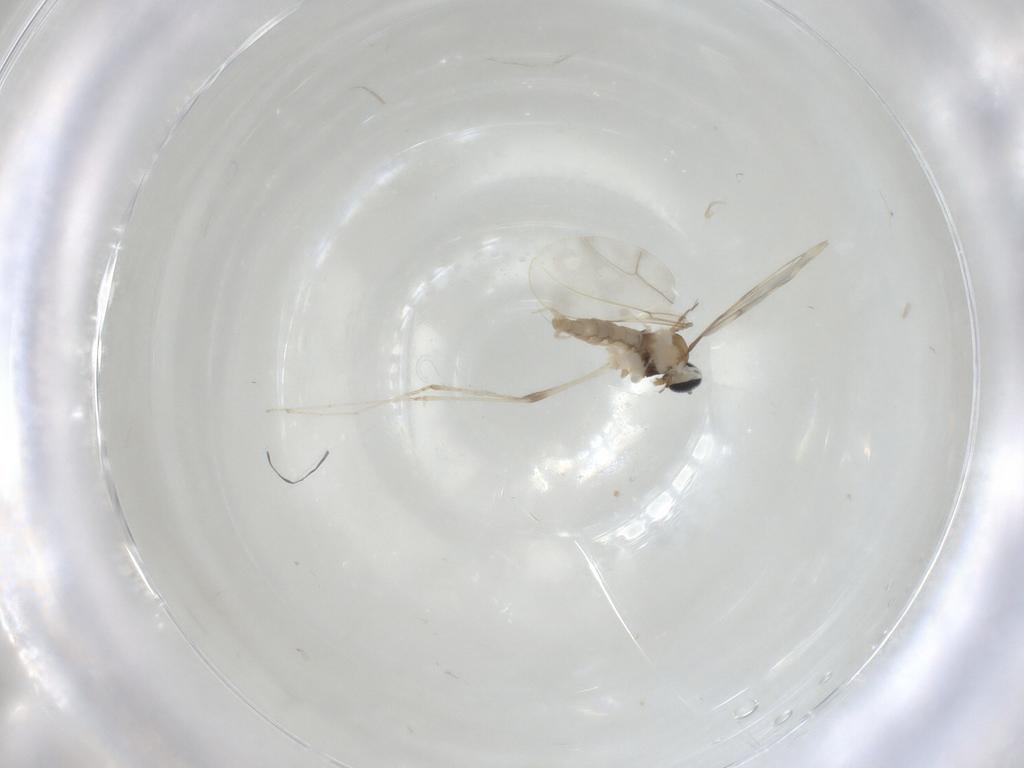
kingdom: Animalia
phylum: Arthropoda
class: Insecta
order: Diptera
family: Cecidomyiidae
